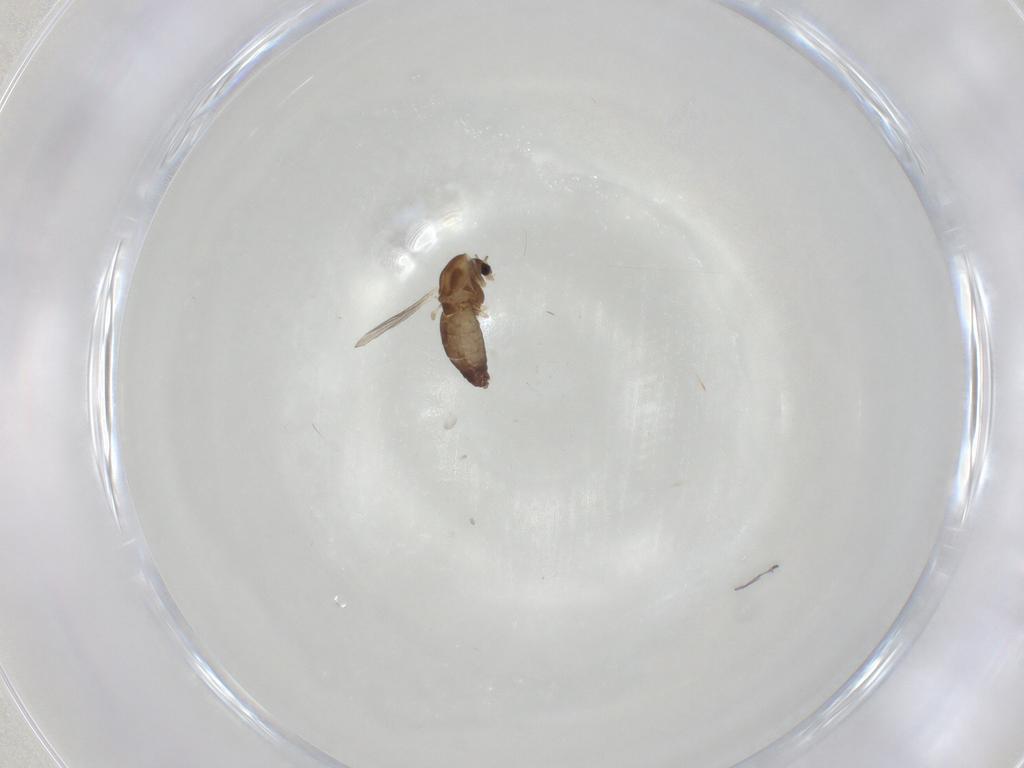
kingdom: Animalia
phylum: Arthropoda
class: Insecta
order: Diptera
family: Chironomidae
